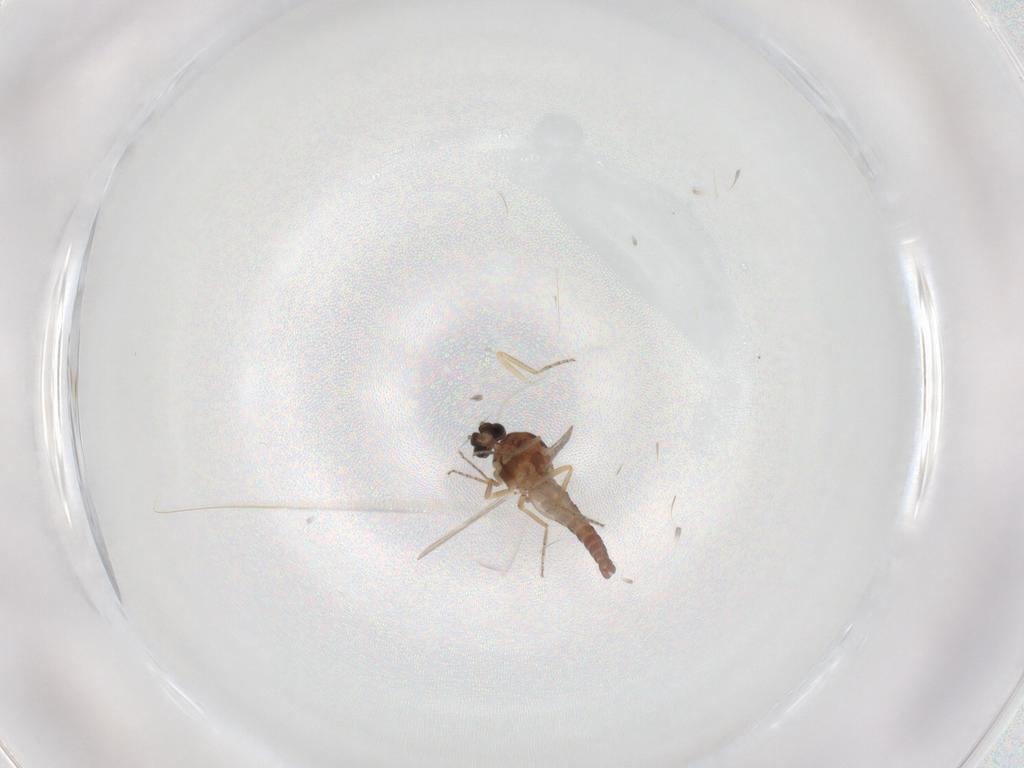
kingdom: Animalia
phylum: Arthropoda
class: Insecta
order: Diptera
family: Ceratopogonidae
